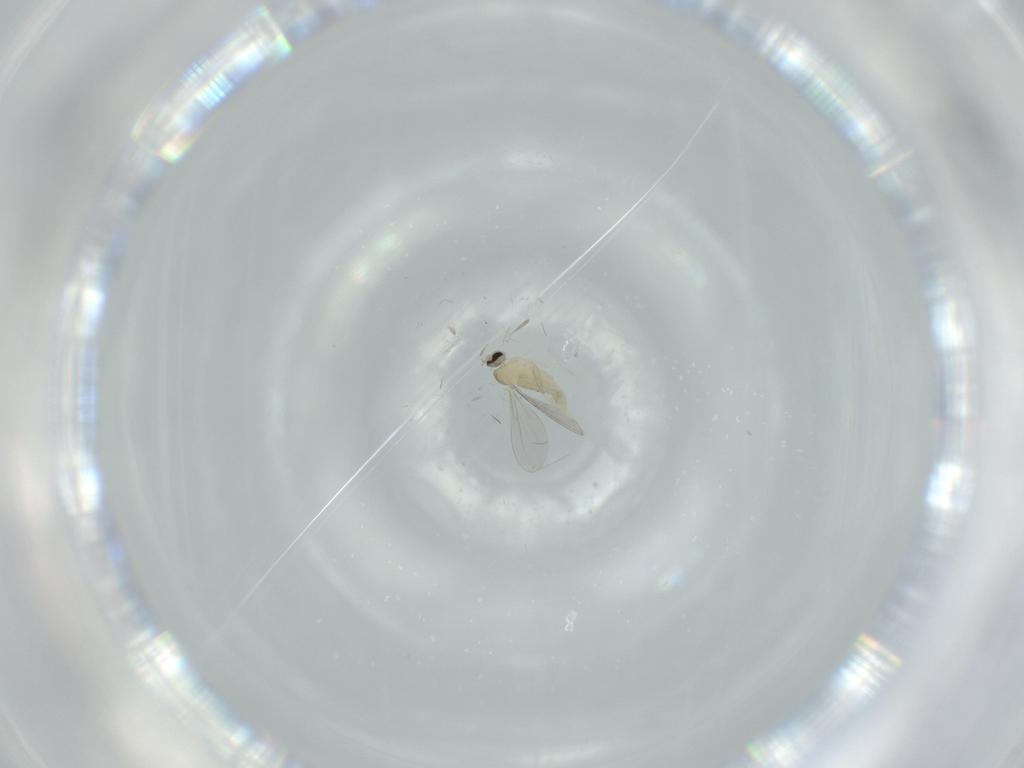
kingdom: Animalia
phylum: Arthropoda
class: Insecta
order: Diptera
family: Cecidomyiidae
